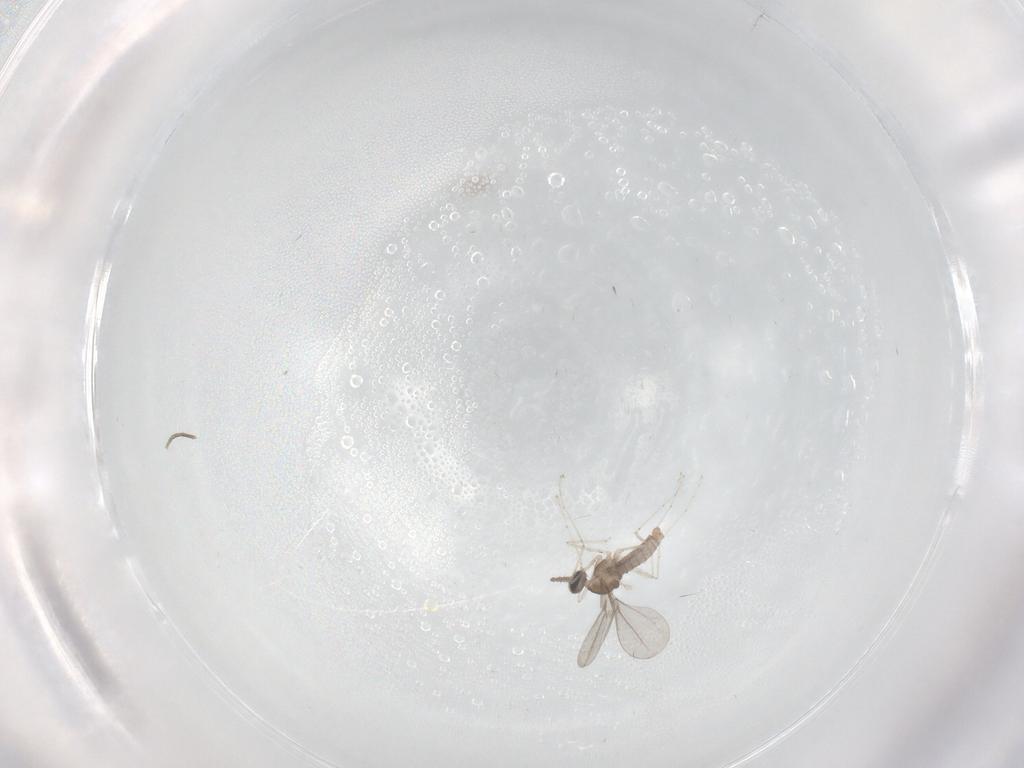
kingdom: Animalia
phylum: Arthropoda
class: Insecta
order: Diptera
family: Cecidomyiidae
